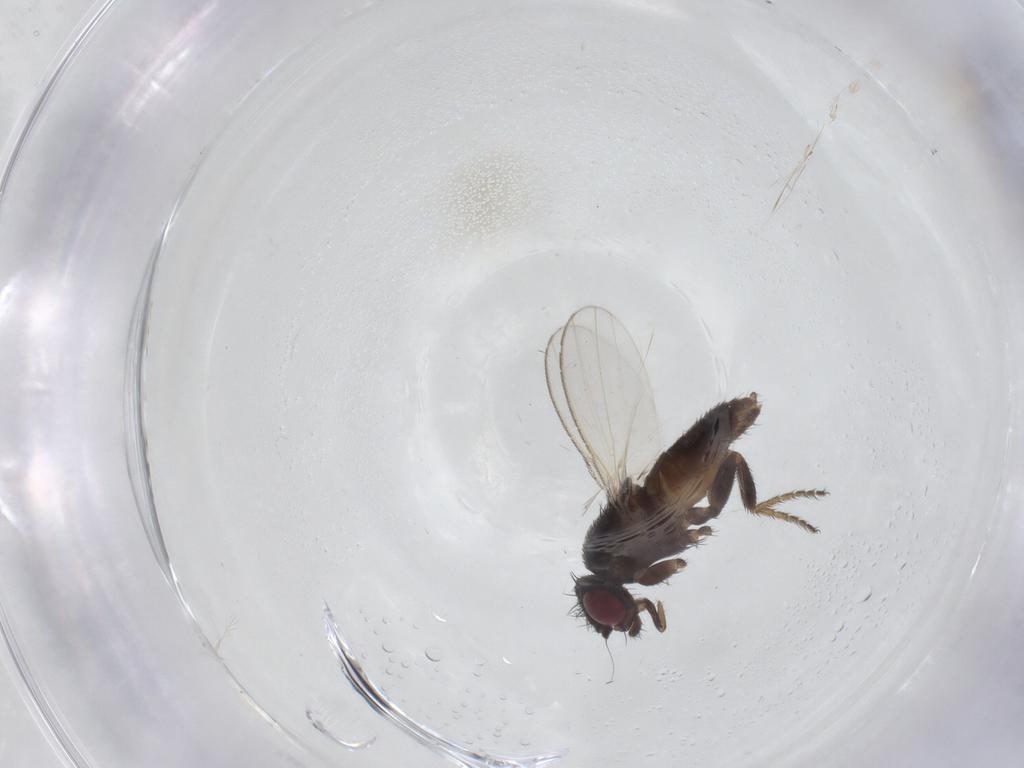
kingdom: Animalia
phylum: Arthropoda
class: Insecta
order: Diptera
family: Milichiidae
